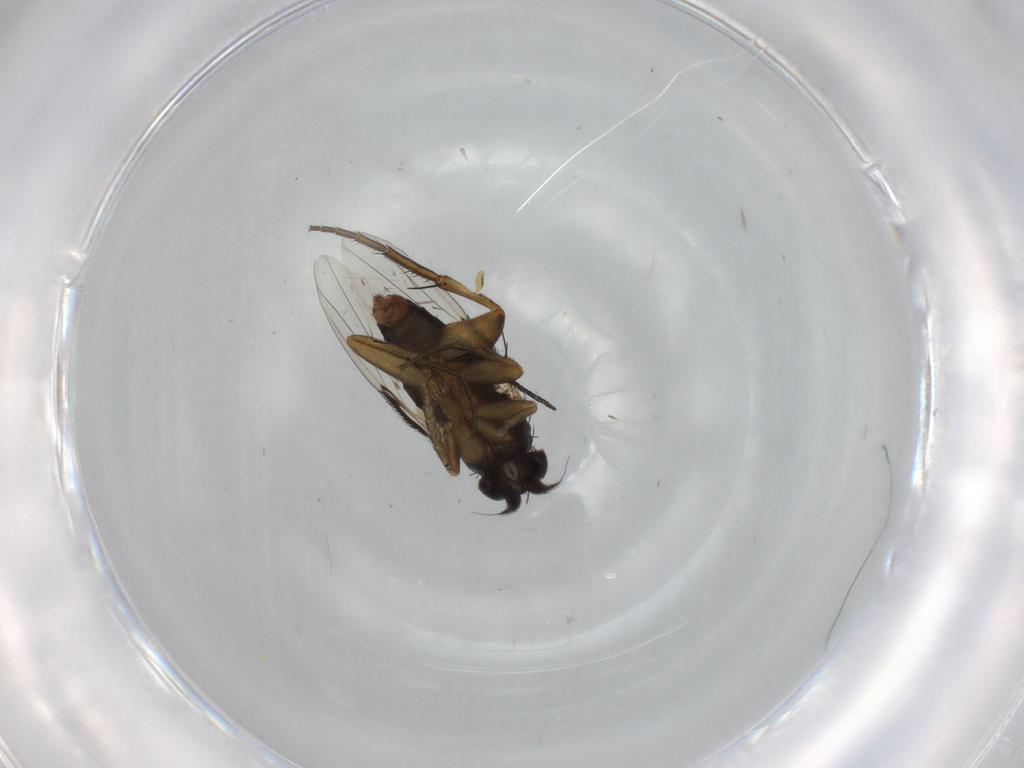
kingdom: Animalia
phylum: Arthropoda
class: Insecta
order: Diptera
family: Phoridae
